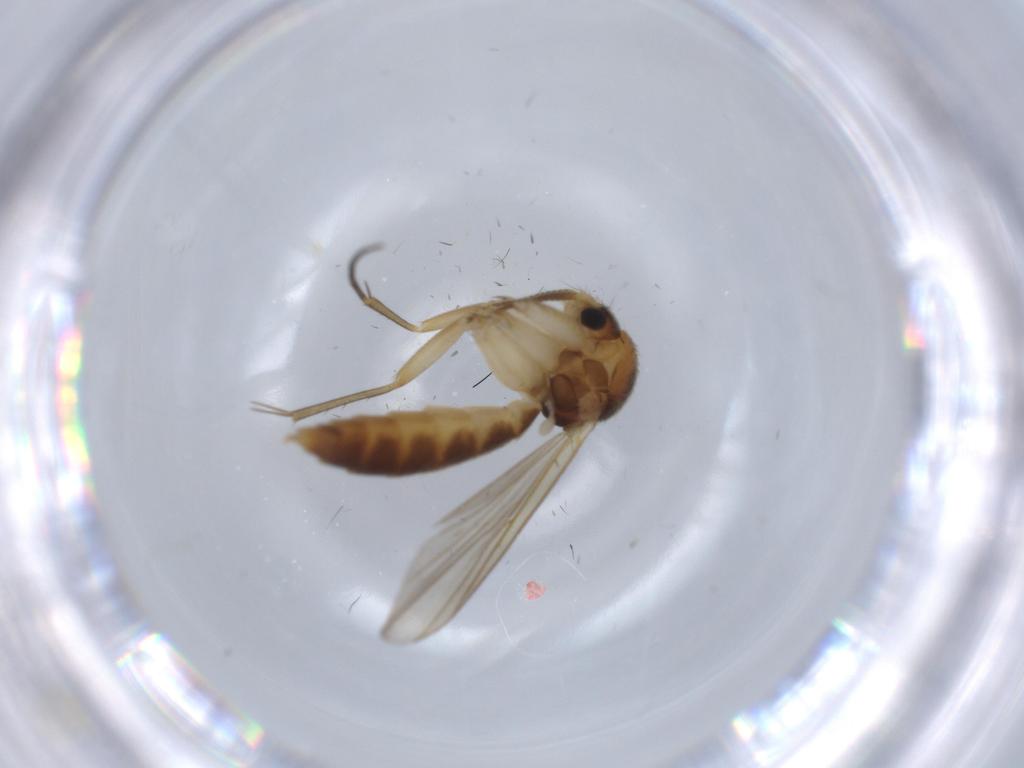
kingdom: Animalia
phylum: Arthropoda
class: Insecta
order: Diptera
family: Cecidomyiidae
